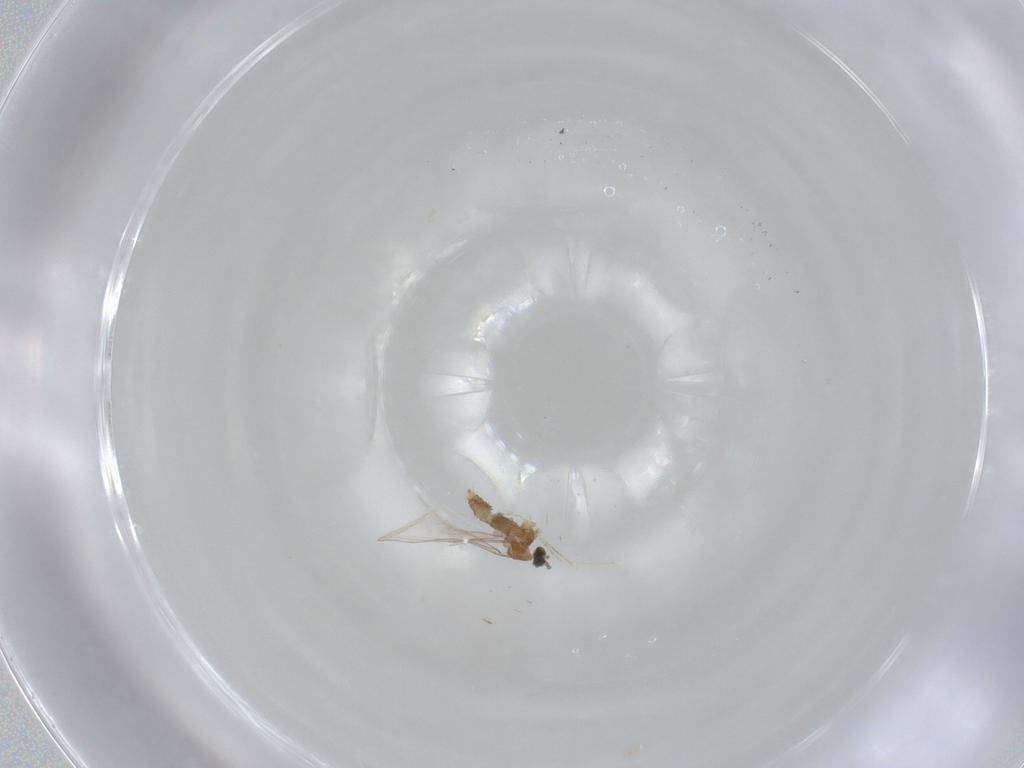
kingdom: Animalia
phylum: Arthropoda
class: Insecta
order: Diptera
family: Cecidomyiidae
